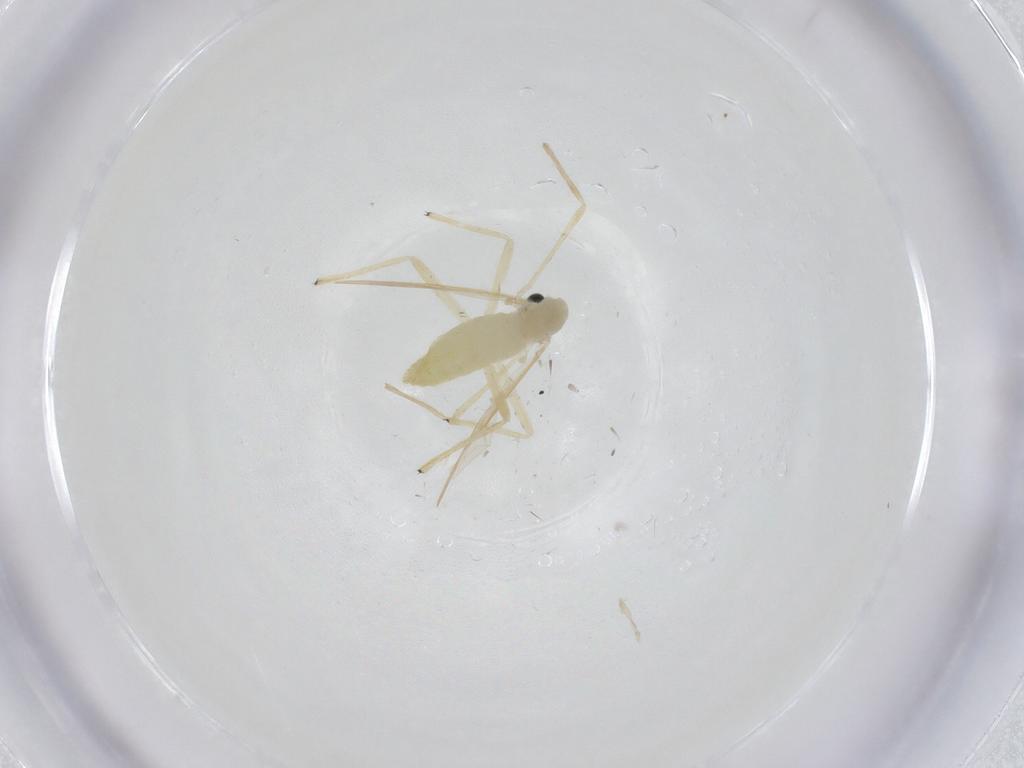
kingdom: Animalia
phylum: Arthropoda
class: Insecta
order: Diptera
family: Chironomidae
